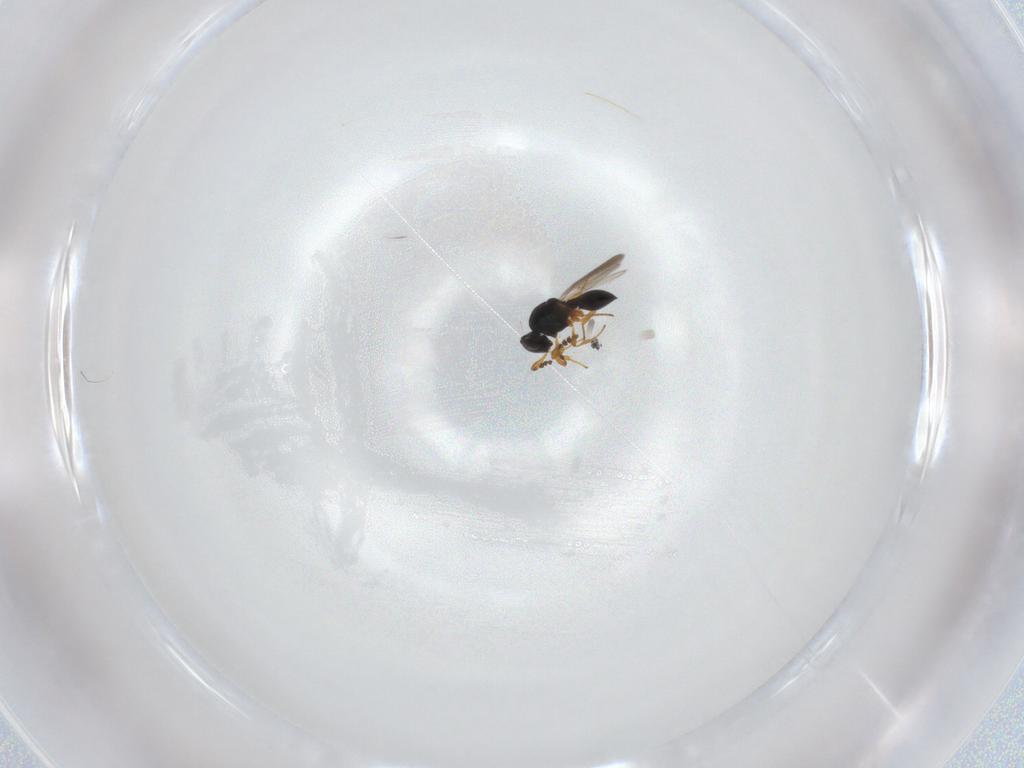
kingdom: Animalia
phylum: Arthropoda
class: Insecta
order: Hymenoptera
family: Platygastridae
